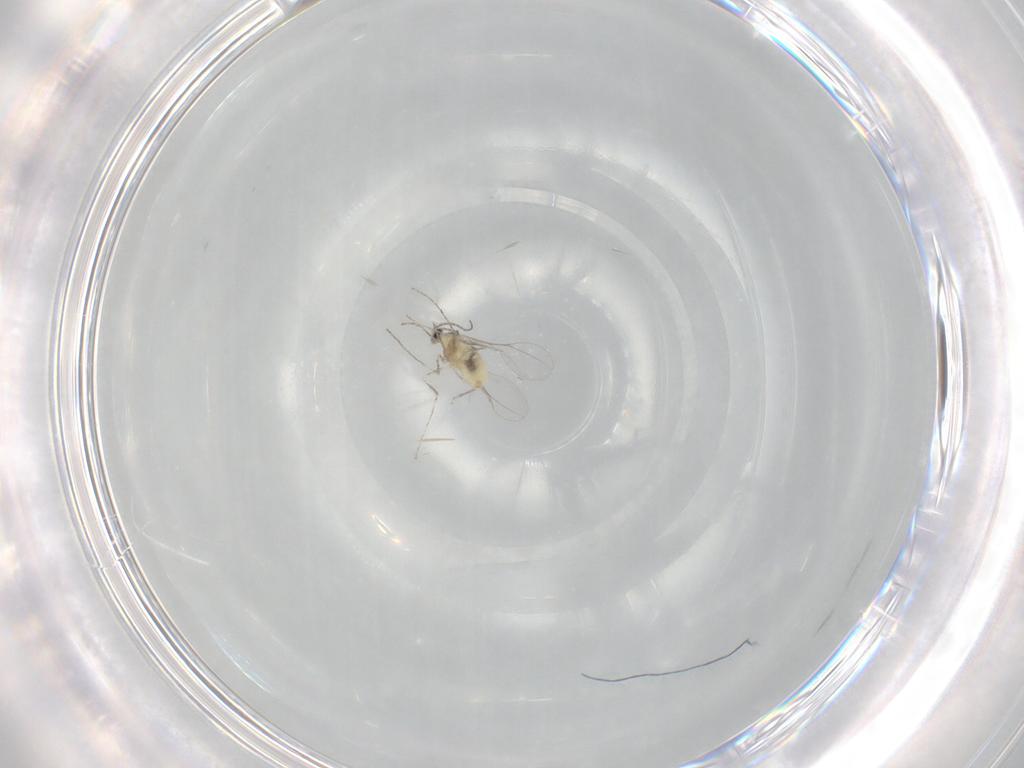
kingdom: Animalia
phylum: Arthropoda
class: Insecta
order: Diptera
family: Cecidomyiidae
